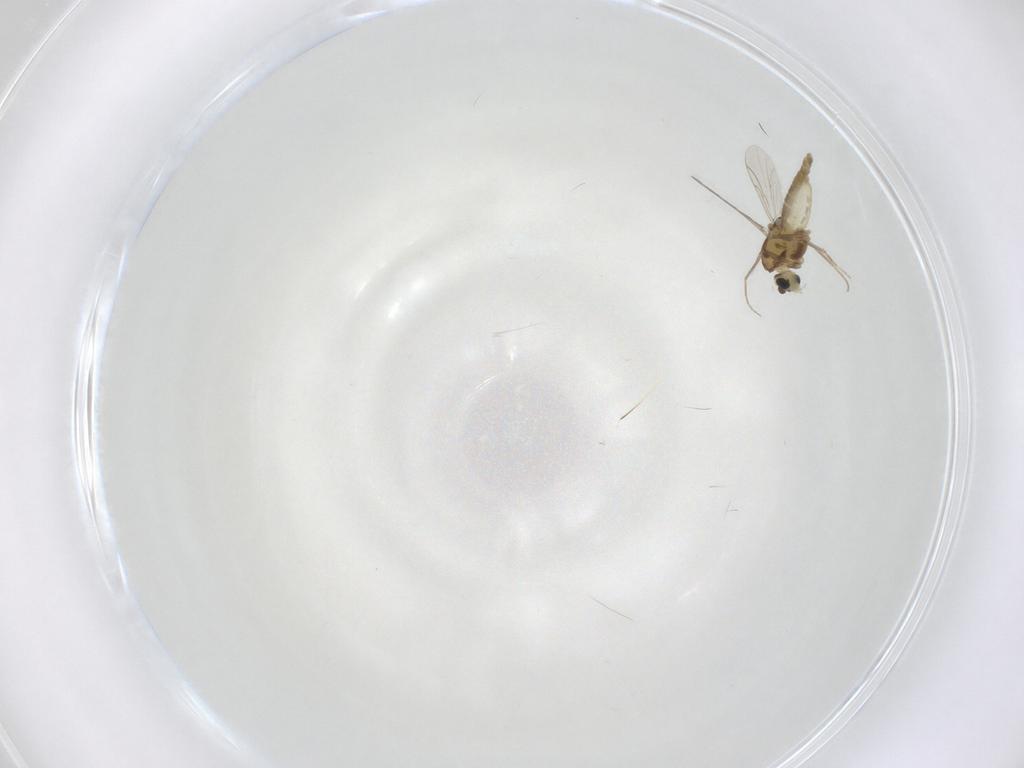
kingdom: Animalia
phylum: Arthropoda
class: Insecta
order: Diptera
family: Chironomidae
